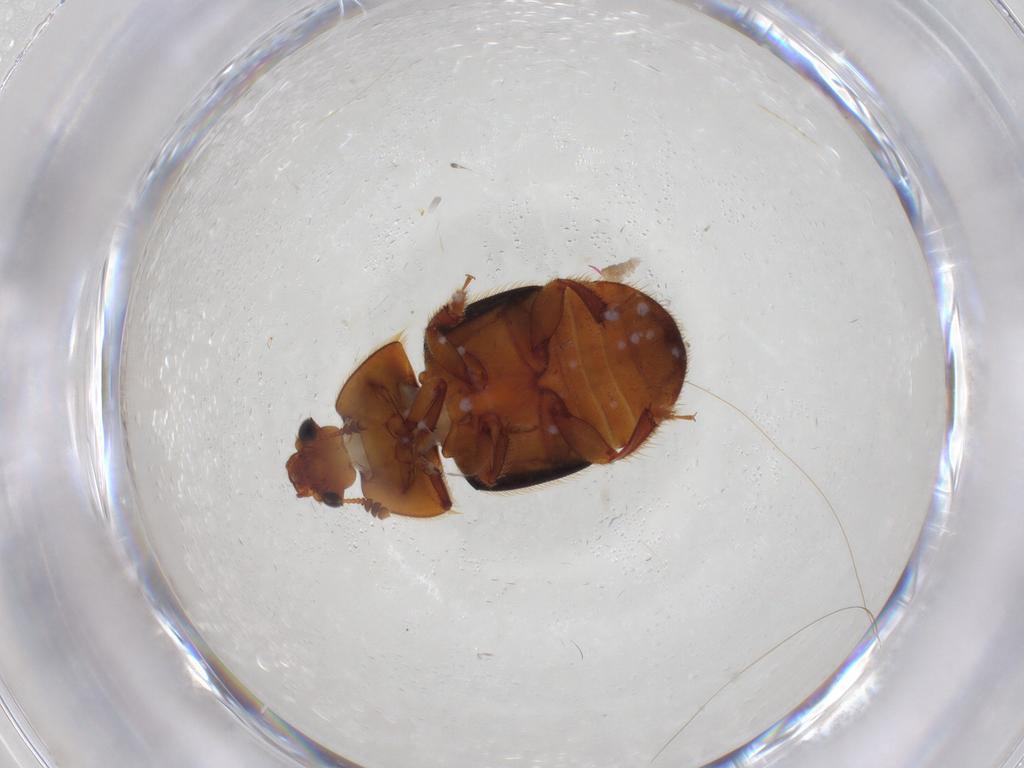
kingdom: Animalia
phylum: Arthropoda
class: Insecta
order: Coleoptera
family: Nitidulidae
